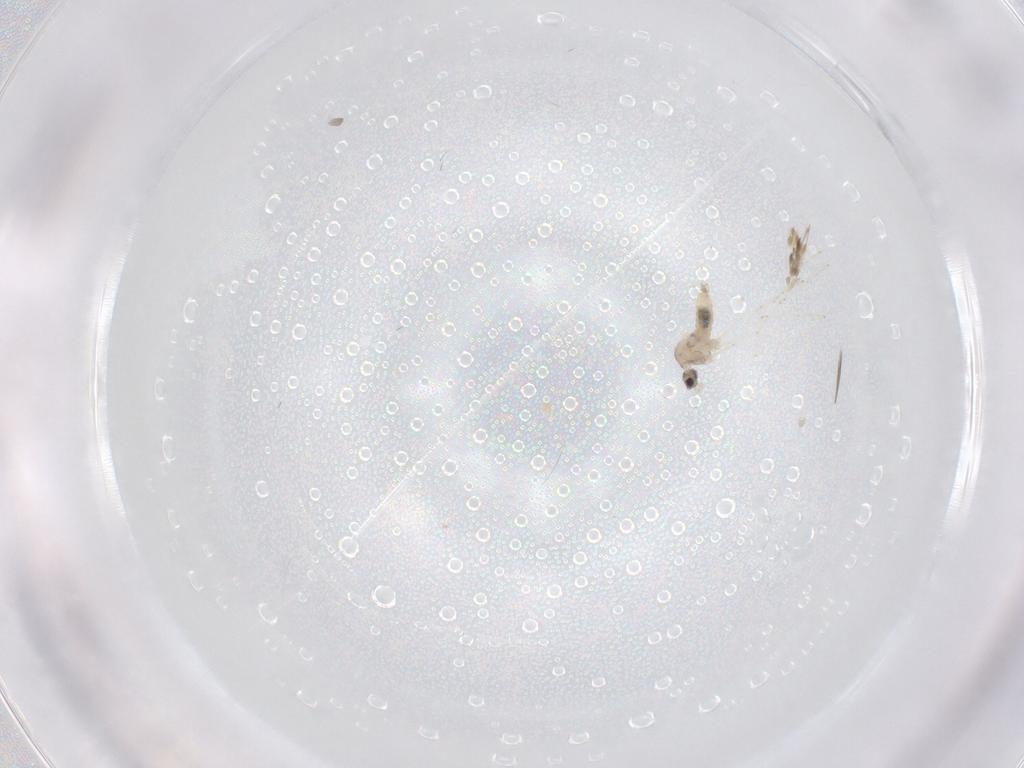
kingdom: Animalia
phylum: Arthropoda
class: Insecta
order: Diptera
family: Cecidomyiidae
